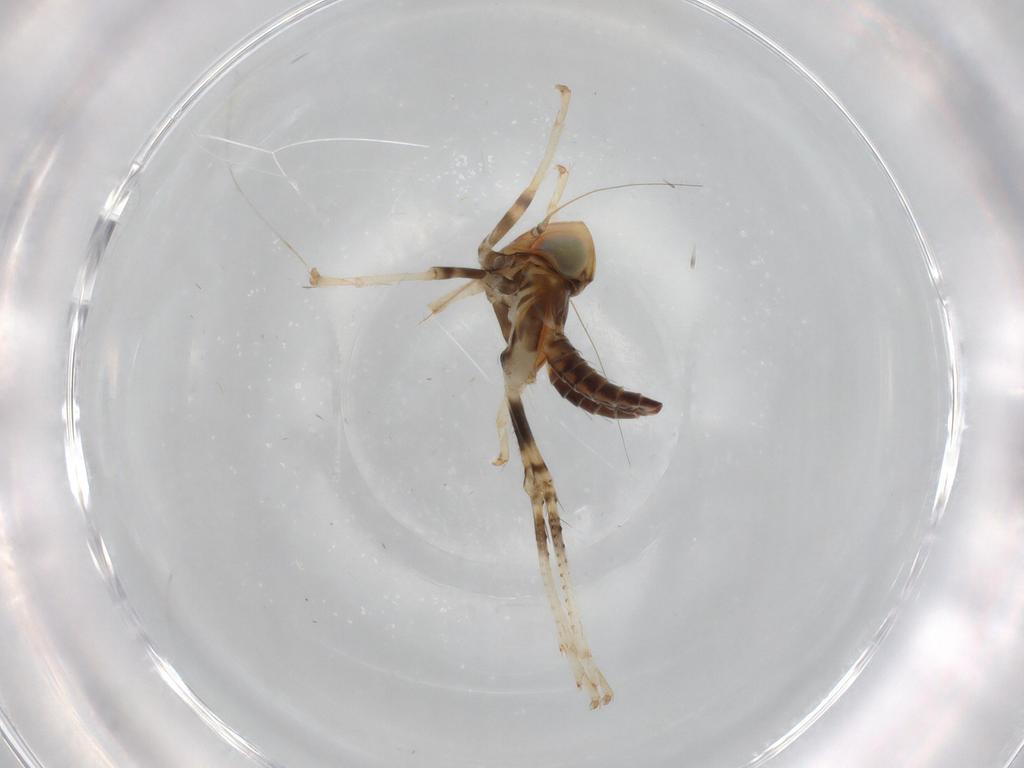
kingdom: Animalia
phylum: Arthropoda
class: Insecta
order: Hemiptera
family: Cicadellidae
